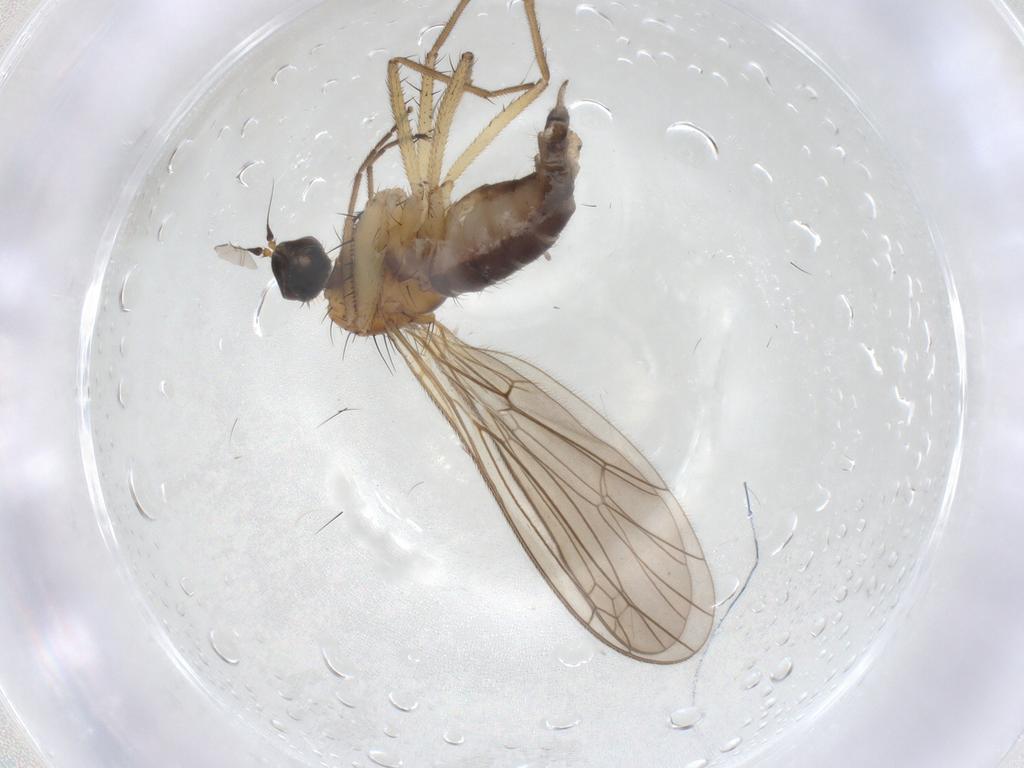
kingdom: Animalia
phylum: Arthropoda
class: Insecta
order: Diptera
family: Empididae
